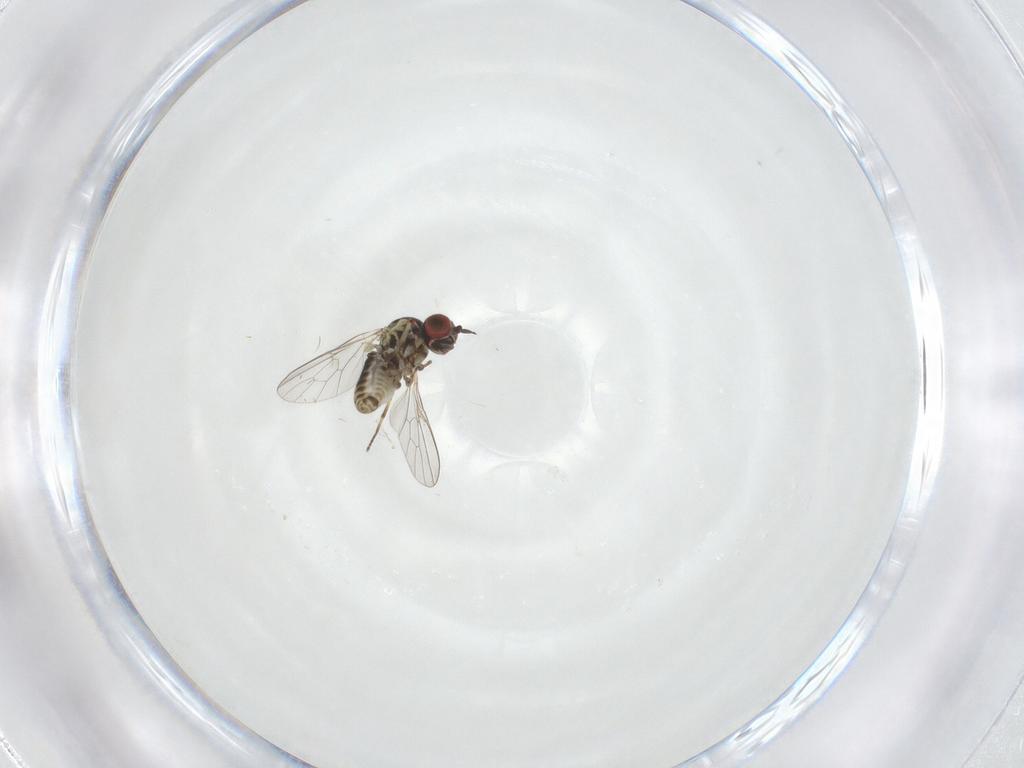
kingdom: Animalia
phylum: Arthropoda
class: Insecta
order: Diptera
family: Mythicomyiidae
